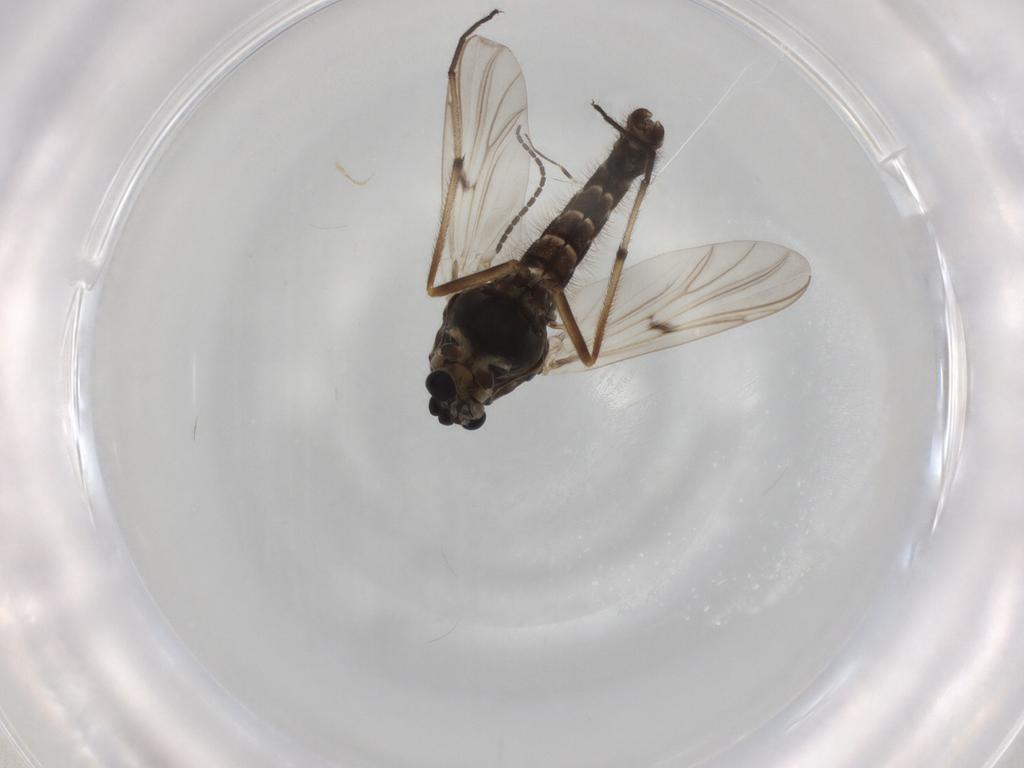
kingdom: Animalia
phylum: Arthropoda
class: Insecta
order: Diptera
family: Chironomidae
